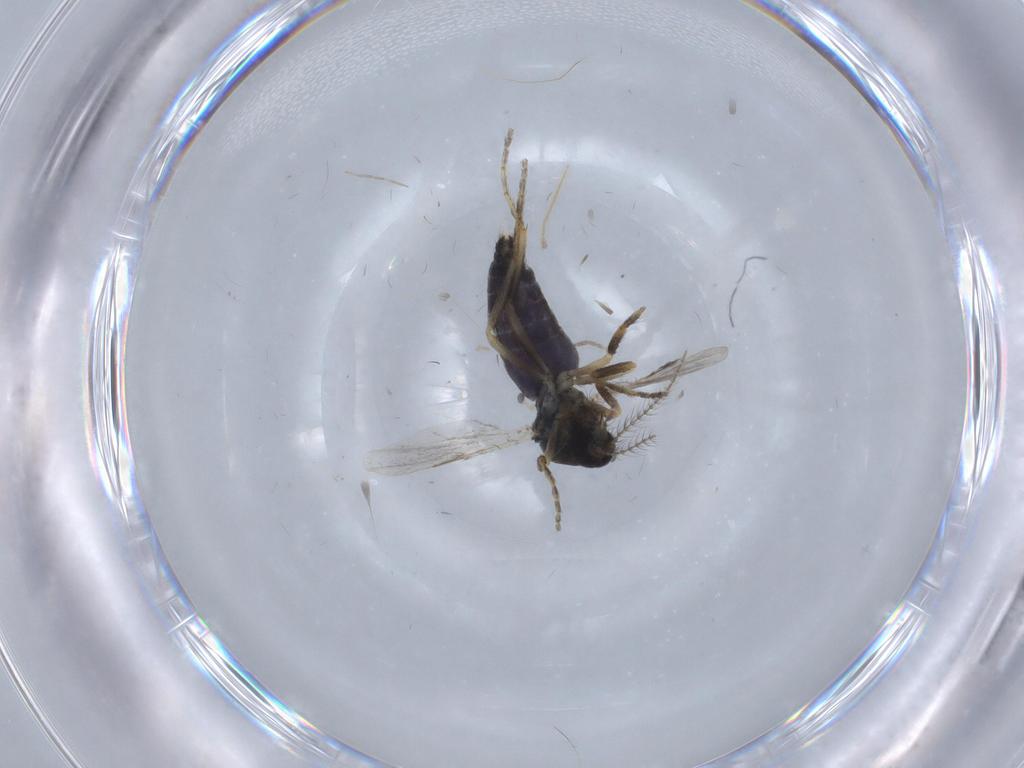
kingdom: Animalia
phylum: Arthropoda
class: Insecta
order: Diptera
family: Ceratopogonidae
